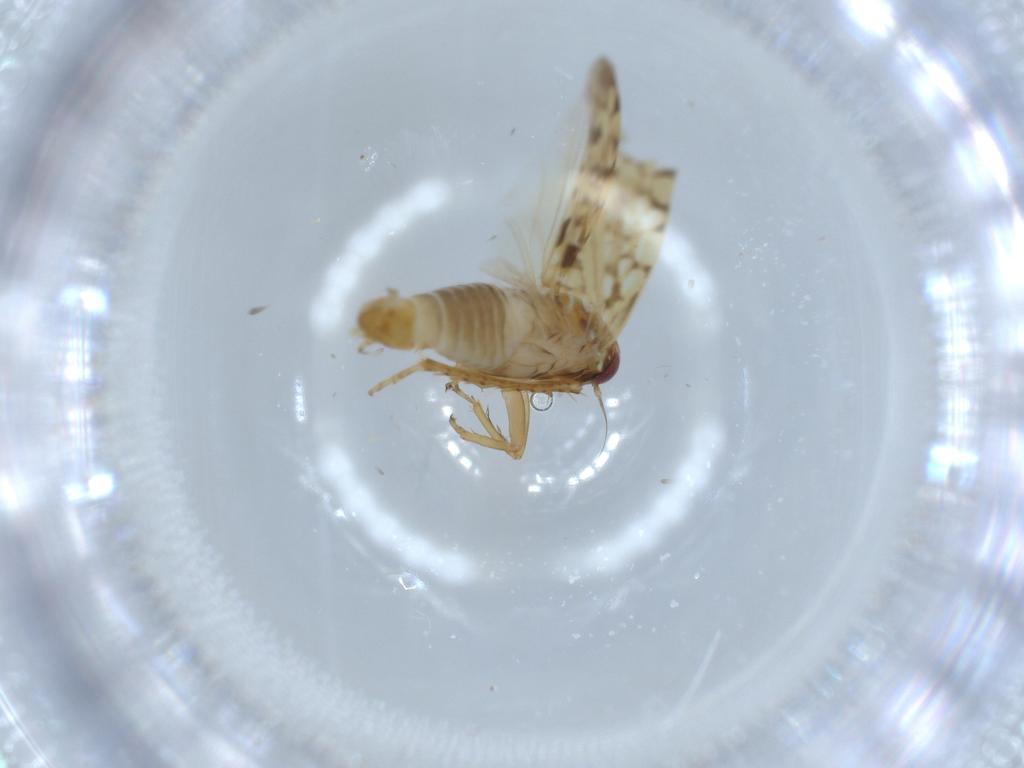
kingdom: Animalia
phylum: Arthropoda
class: Insecta
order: Hemiptera
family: Cicadellidae
